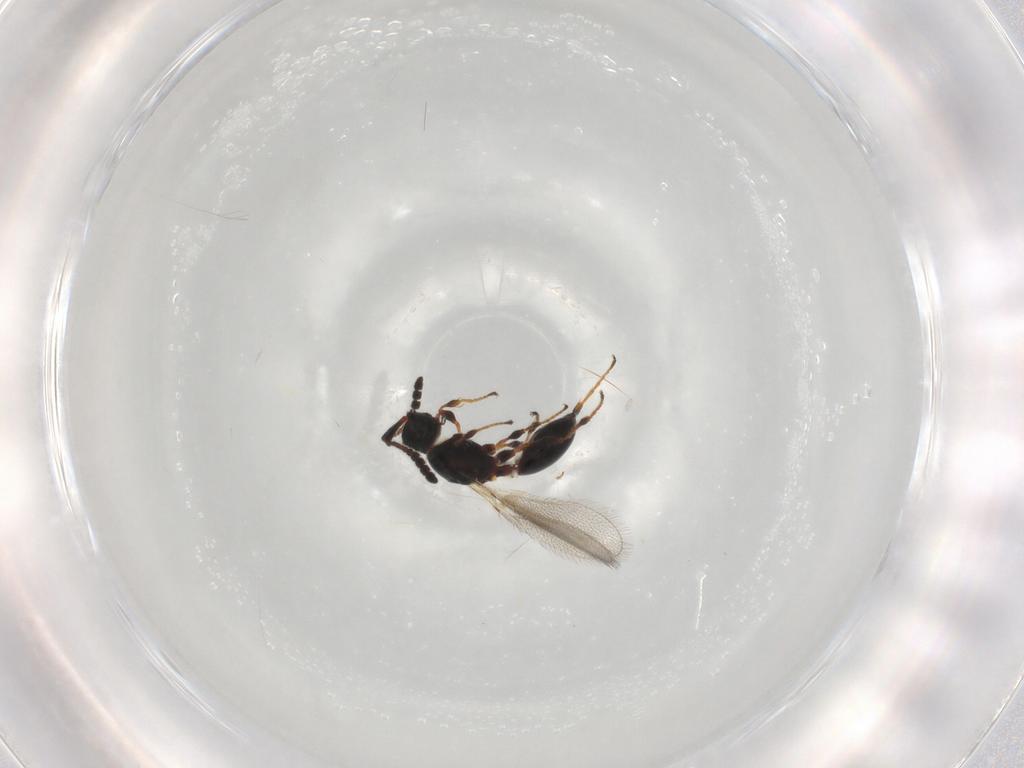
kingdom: Animalia
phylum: Arthropoda
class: Insecta
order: Hymenoptera
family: Diapriidae
